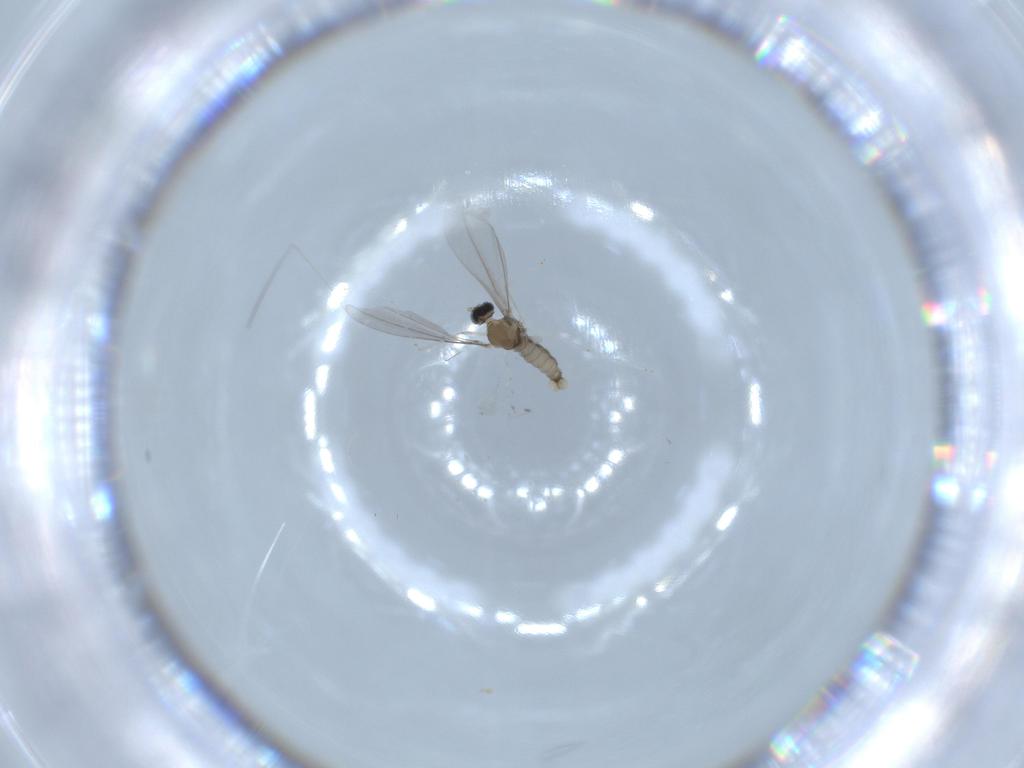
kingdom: Animalia
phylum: Arthropoda
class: Insecta
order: Diptera
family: Cecidomyiidae
